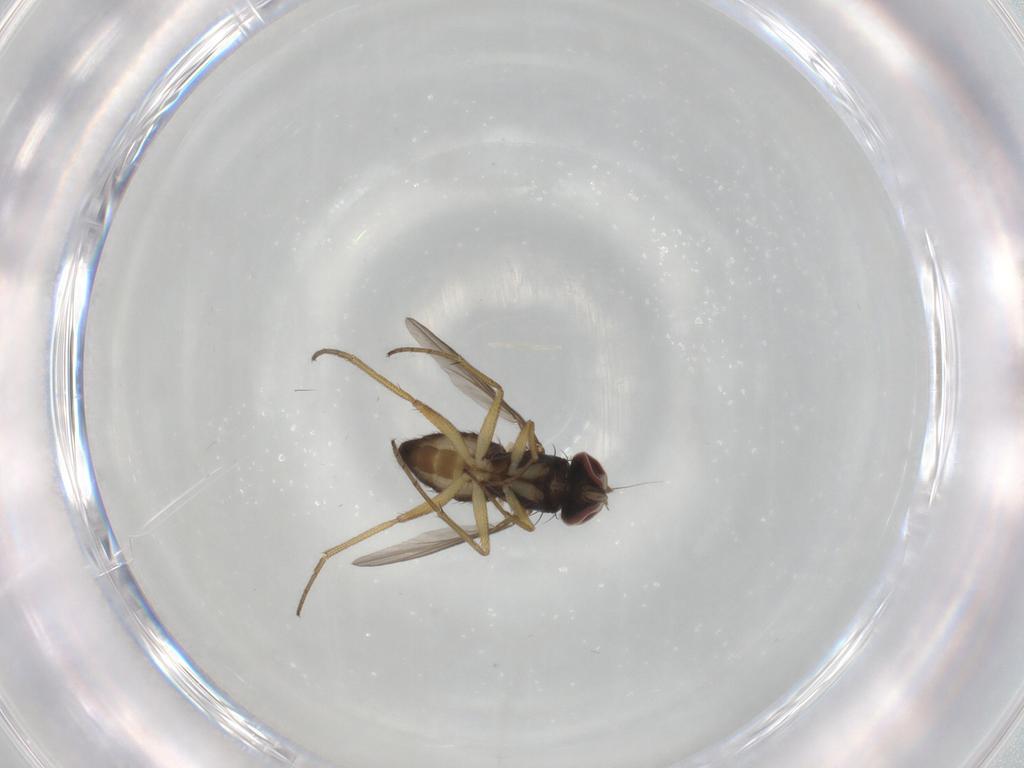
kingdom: Animalia
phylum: Arthropoda
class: Insecta
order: Diptera
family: Dolichopodidae
